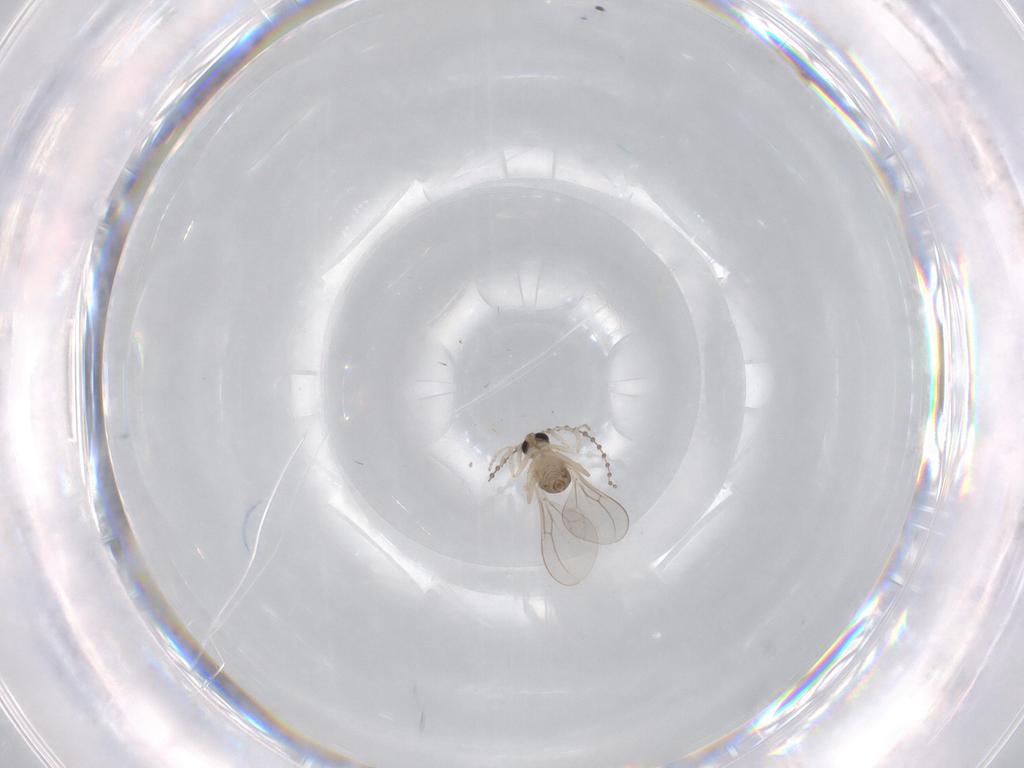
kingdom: Animalia
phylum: Arthropoda
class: Insecta
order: Diptera
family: Cecidomyiidae
